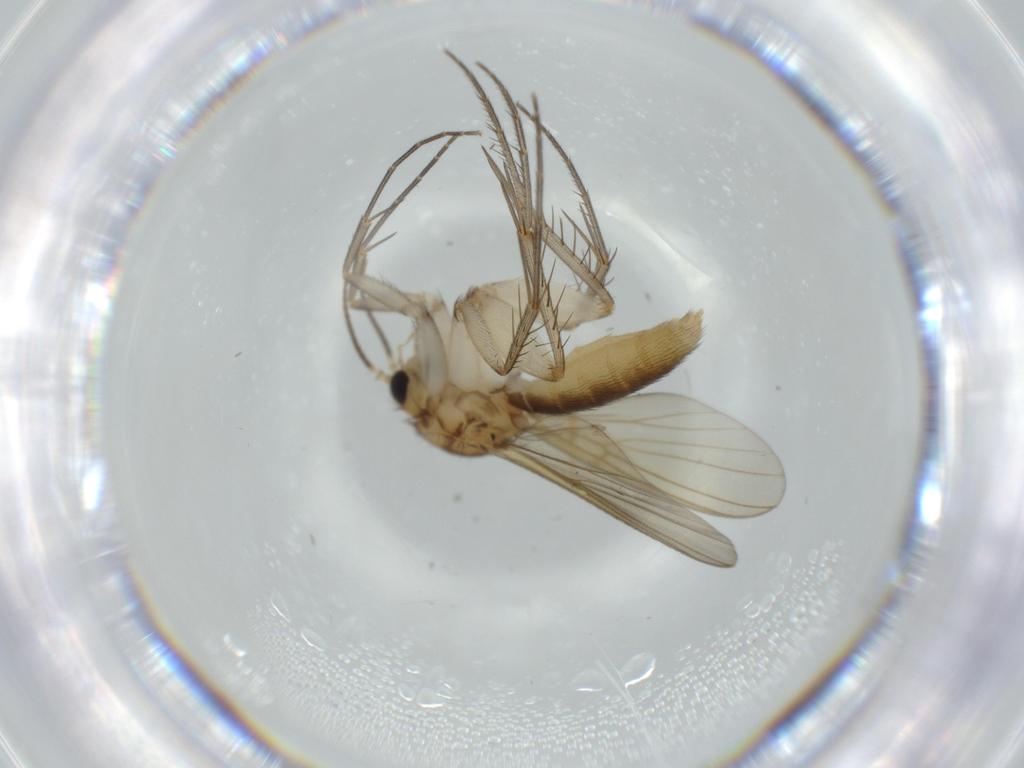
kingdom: Animalia
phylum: Arthropoda
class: Insecta
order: Diptera
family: Cecidomyiidae
